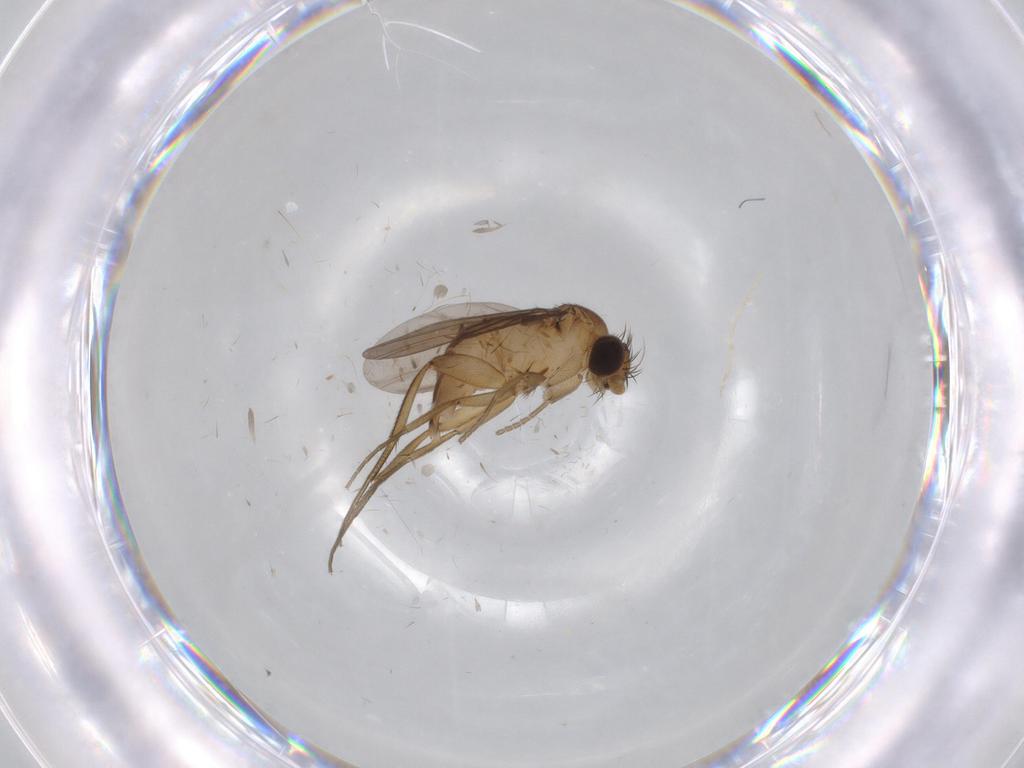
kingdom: Animalia
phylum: Arthropoda
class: Insecta
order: Diptera
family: Phoridae
